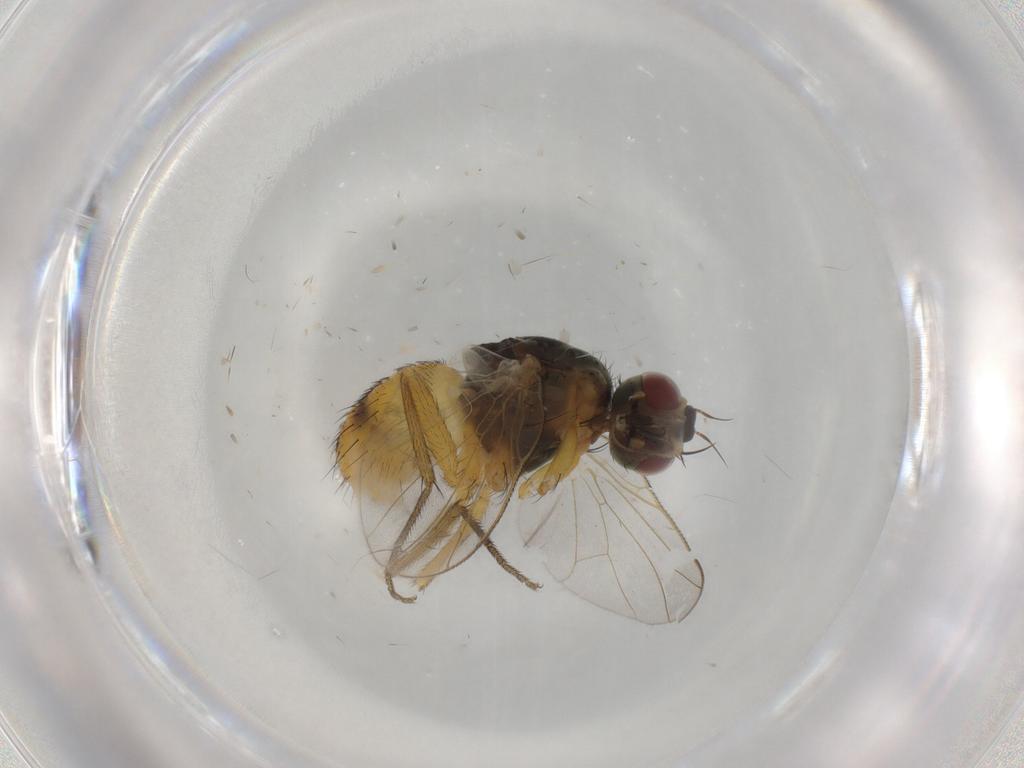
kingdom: Animalia
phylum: Arthropoda
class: Insecta
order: Diptera
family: Muscidae
